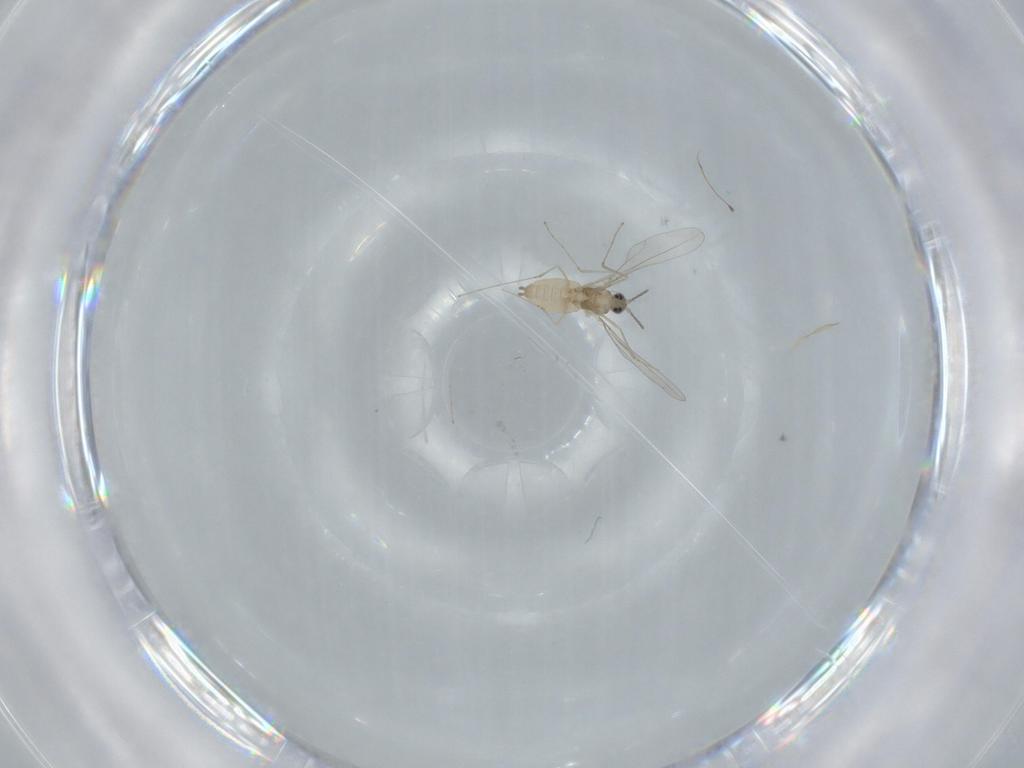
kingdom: Animalia
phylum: Arthropoda
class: Insecta
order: Diptera
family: Cecidomyiidae
